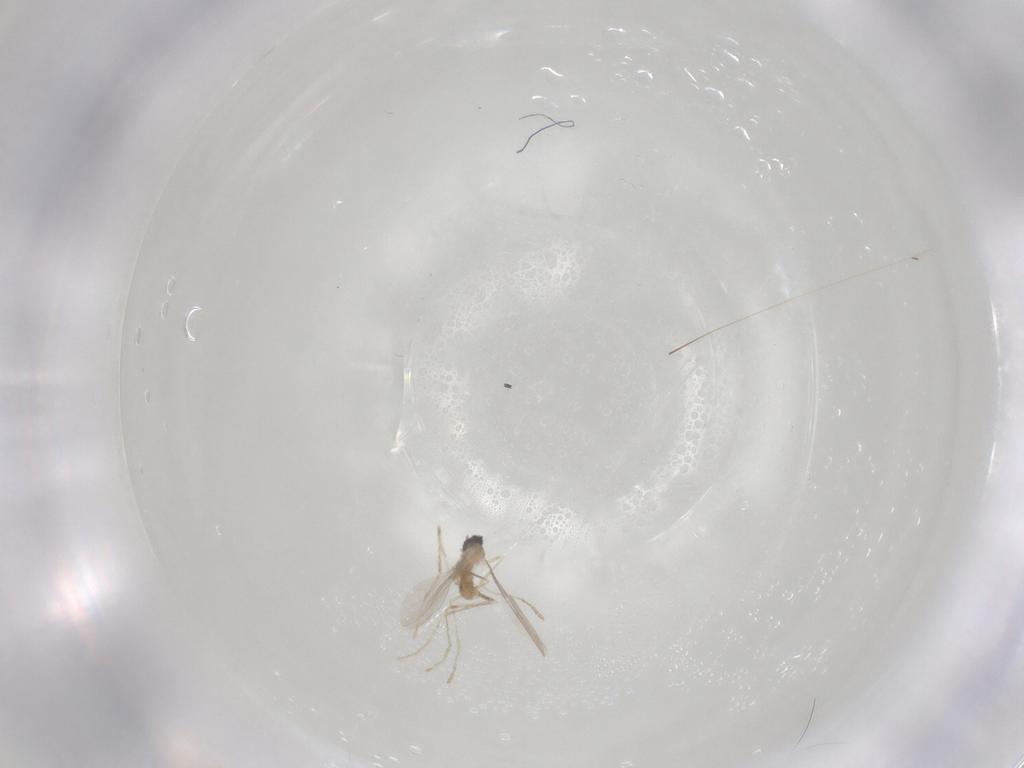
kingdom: Animalia
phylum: Arthropoda
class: Insecta
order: Diptera
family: Cecidomyiidae
